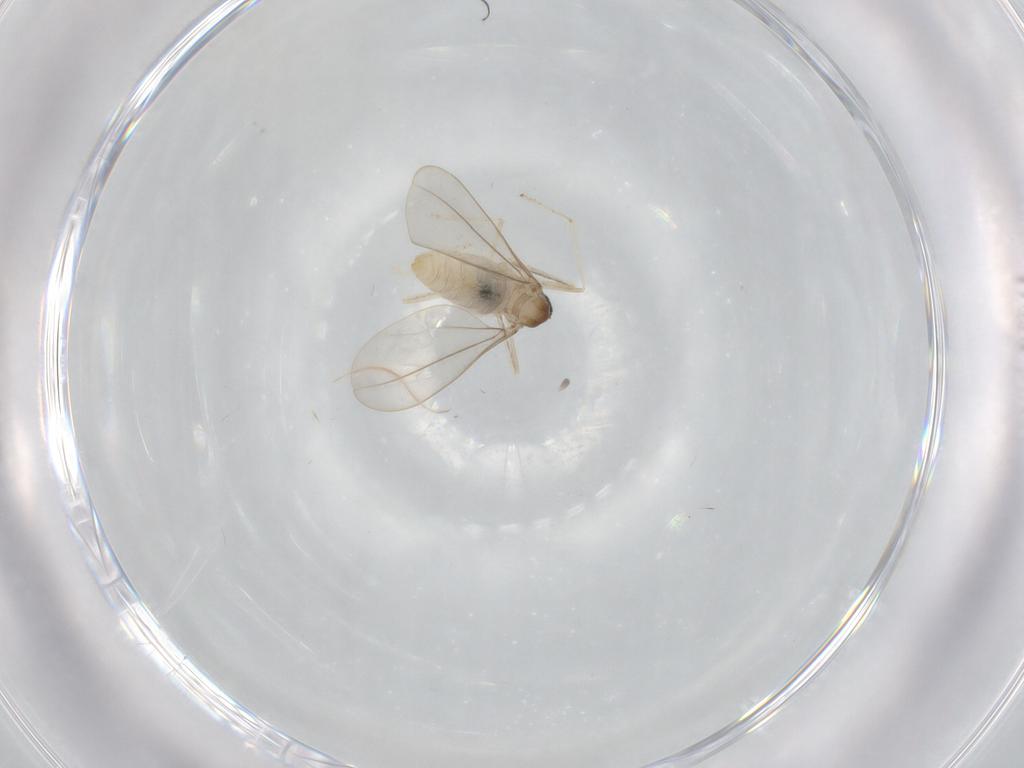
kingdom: Animalia
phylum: Arthropoda
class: Insecta
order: Diptera
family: Cecidomyiidae
